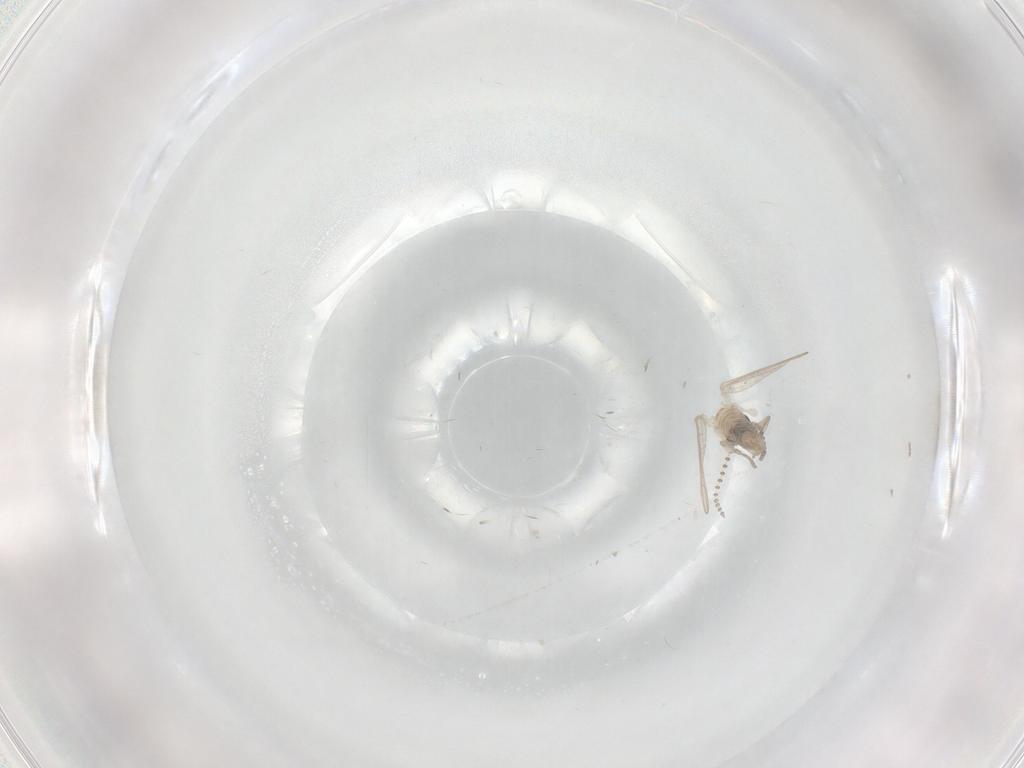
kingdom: Animalia
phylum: Arthropoda
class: Insecta
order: Diptera
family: Psychodidae
